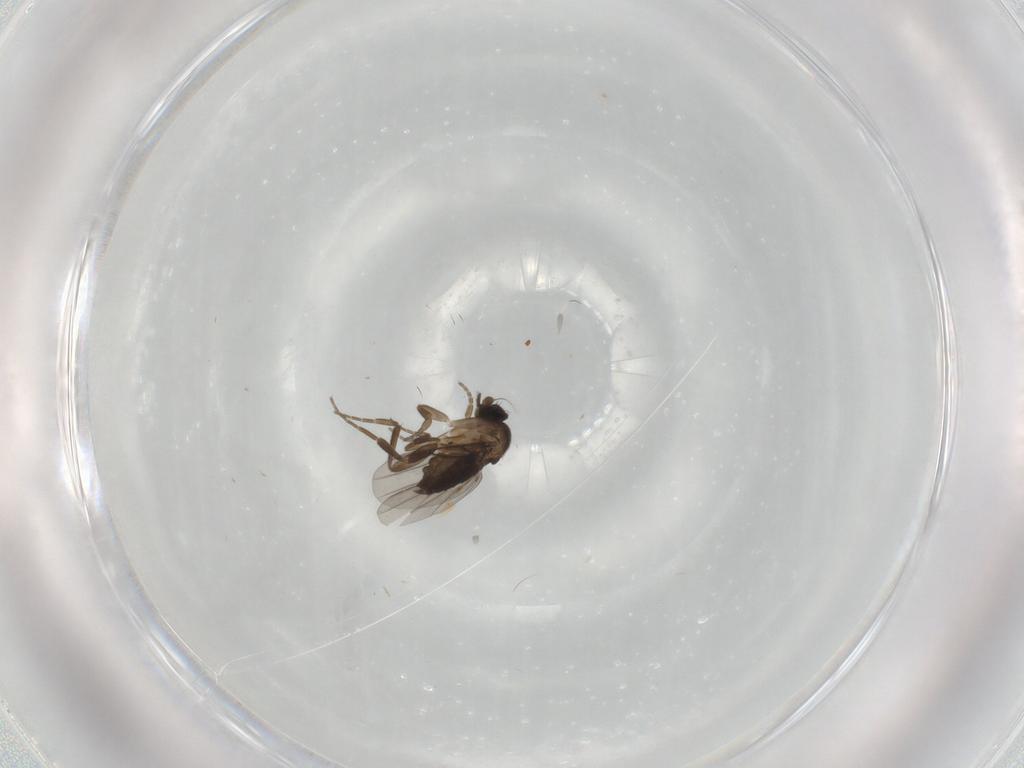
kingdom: Animalia
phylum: Arthropoda
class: Insecta
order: Diptera
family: Phoridae
